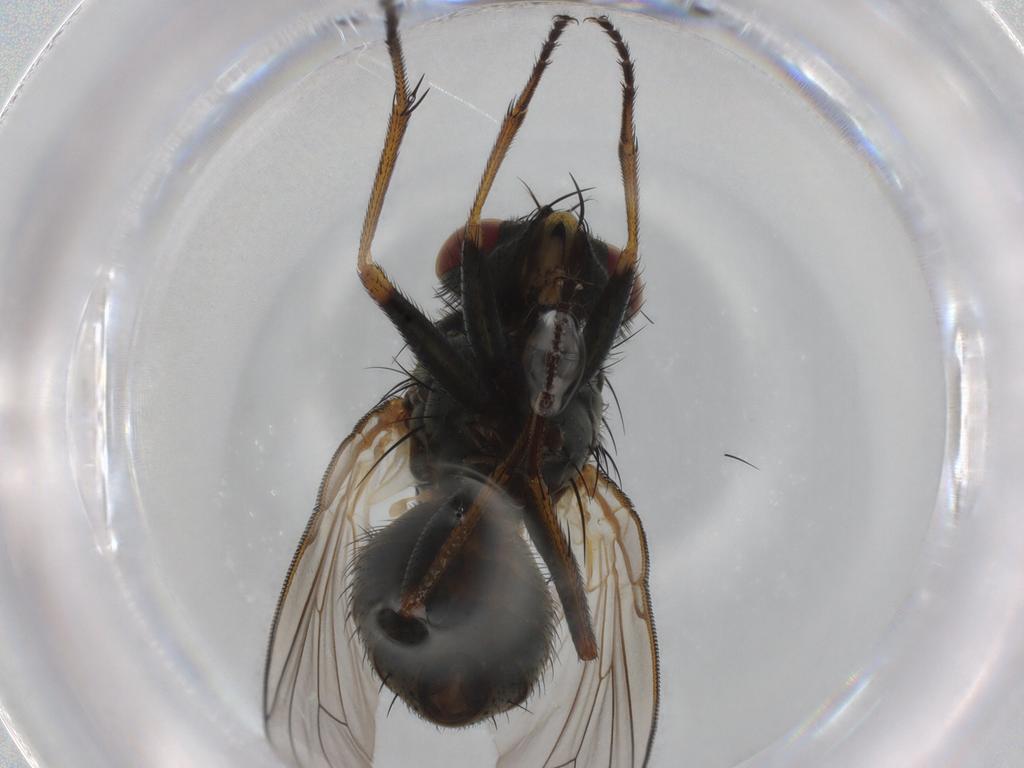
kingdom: Animalia
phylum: Arthropoda
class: Insecta
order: Diptera
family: Muscidae
